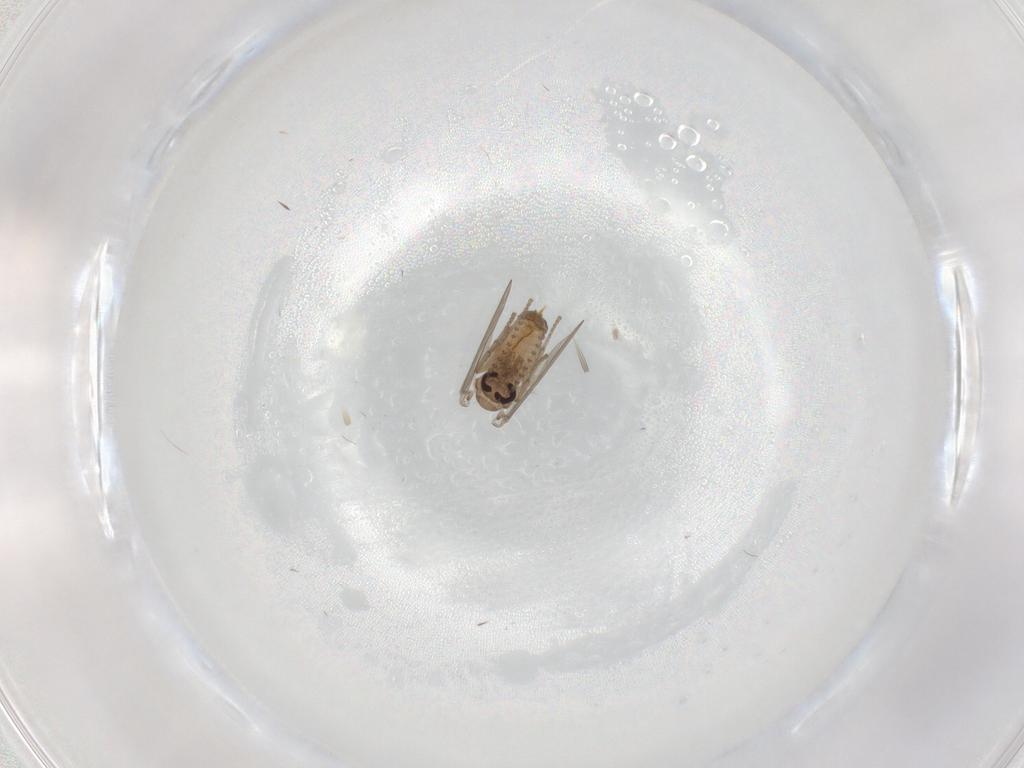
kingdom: Animalia
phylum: Arthropoda
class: Insecta
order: Diptera
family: Psychodidae
